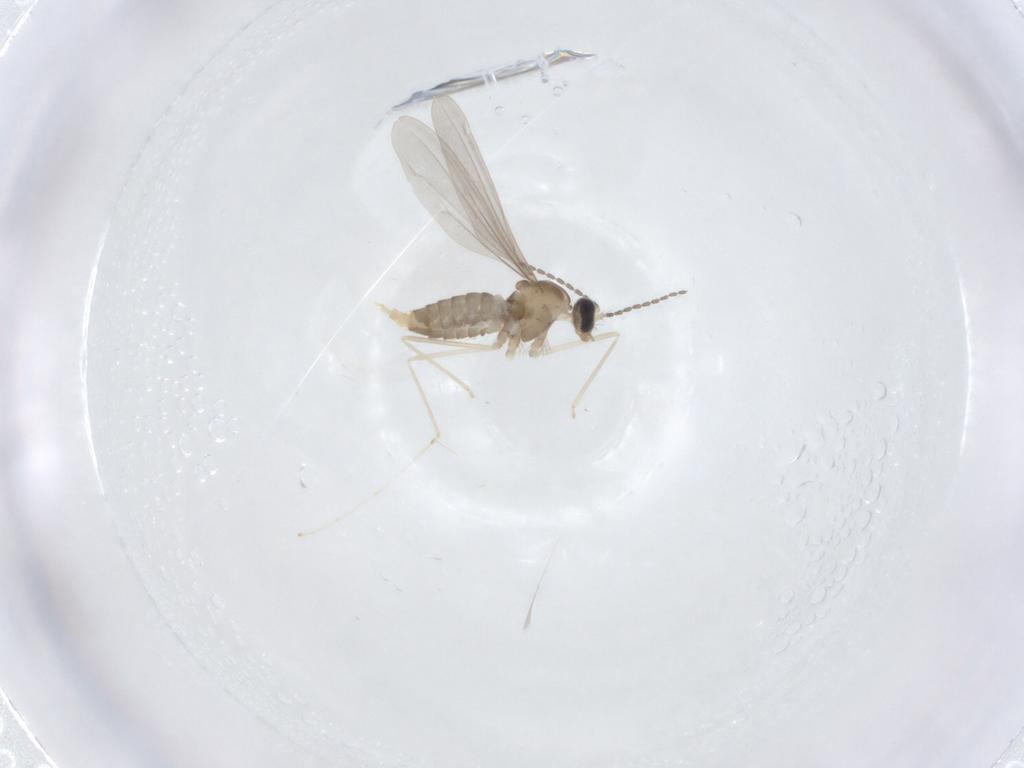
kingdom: Animalia
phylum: Arthropoda
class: Insecta
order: Diptera
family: Cecidomyiidae
